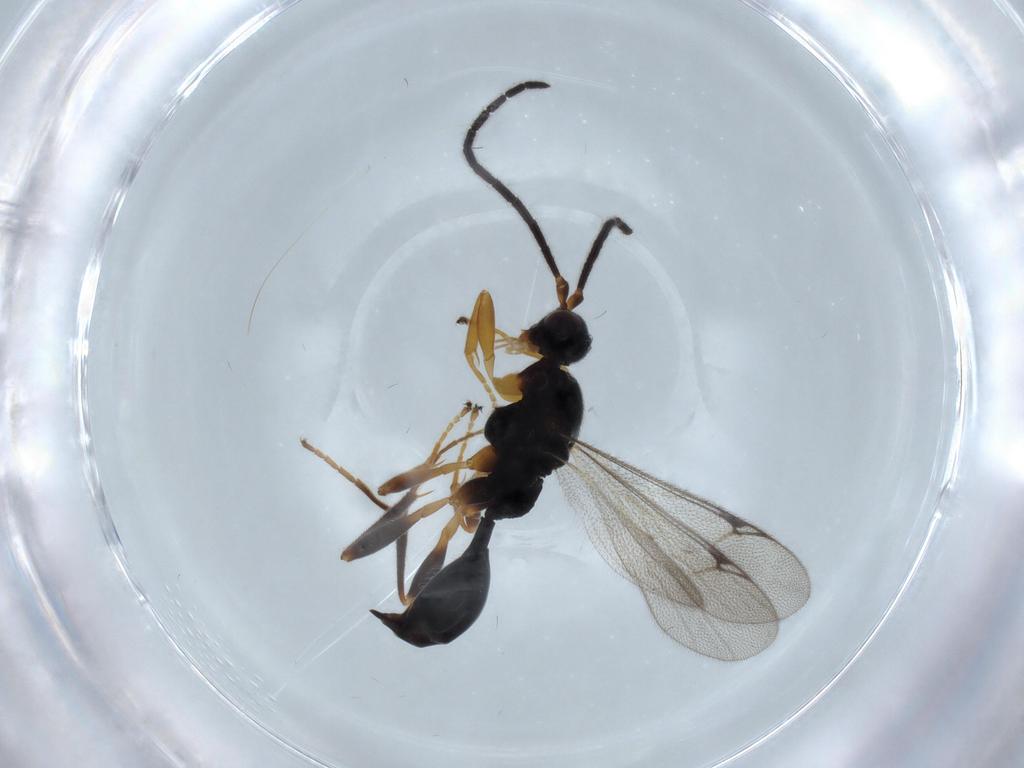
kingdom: Animalia
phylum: Arthropoda
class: Insecta
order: Hymenoptera
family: Proctotrupidae
